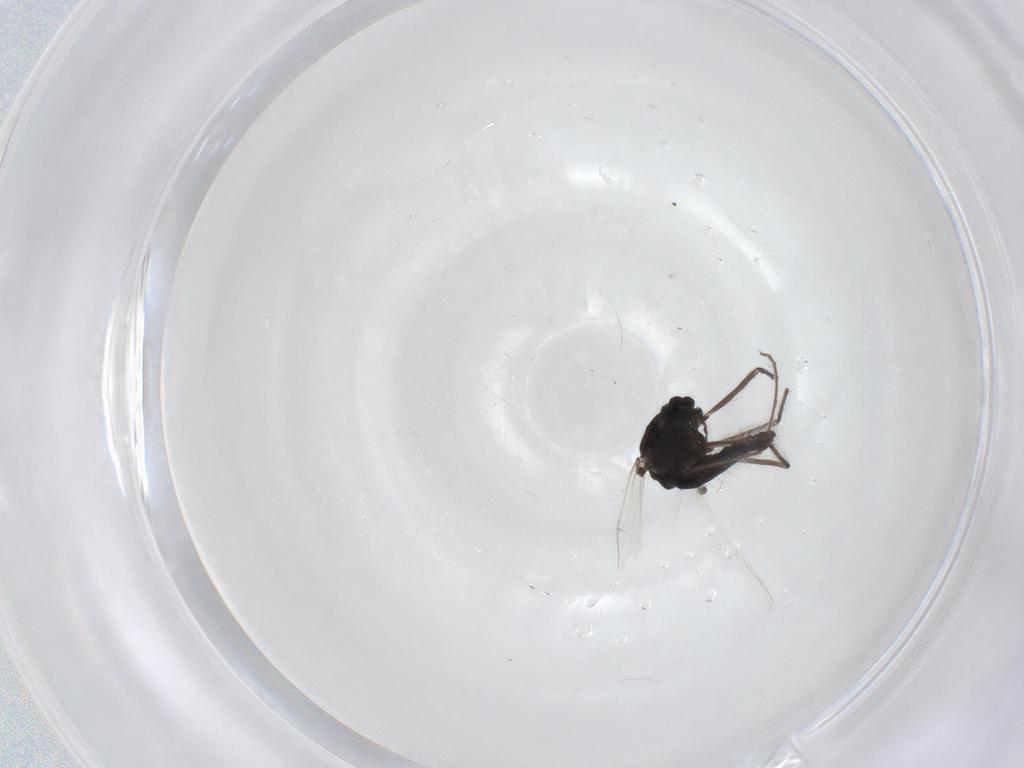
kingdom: Animalia
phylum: Arthropoda
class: Insecta
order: Diptera
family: Chironomidae
